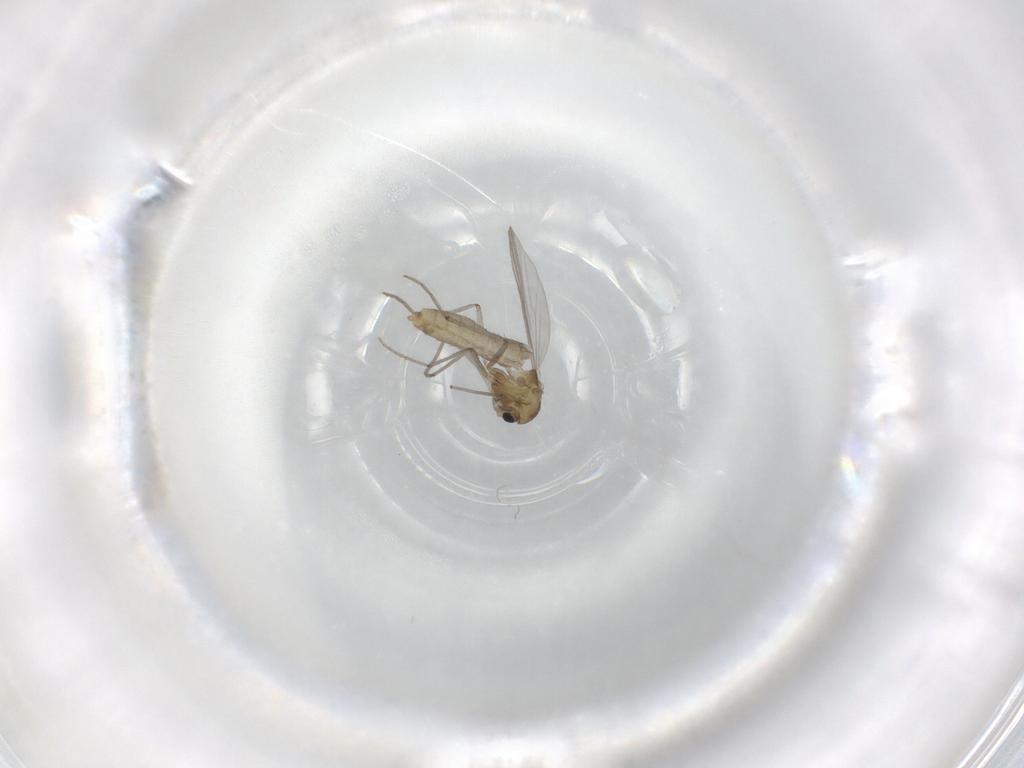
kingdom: Animalia
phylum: Arthropoda
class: Insecta
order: Diptera
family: Chironomidae
